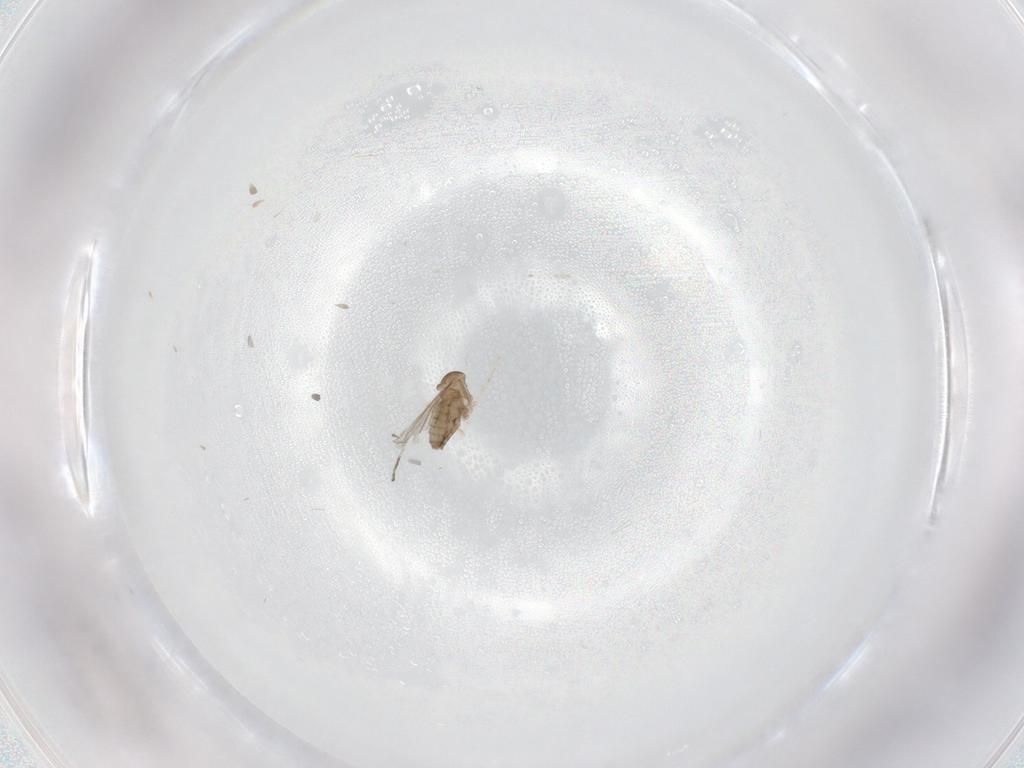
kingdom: Animalia
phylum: Arthropoda
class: Insecta
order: Diptera
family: Cecidomyiidae
